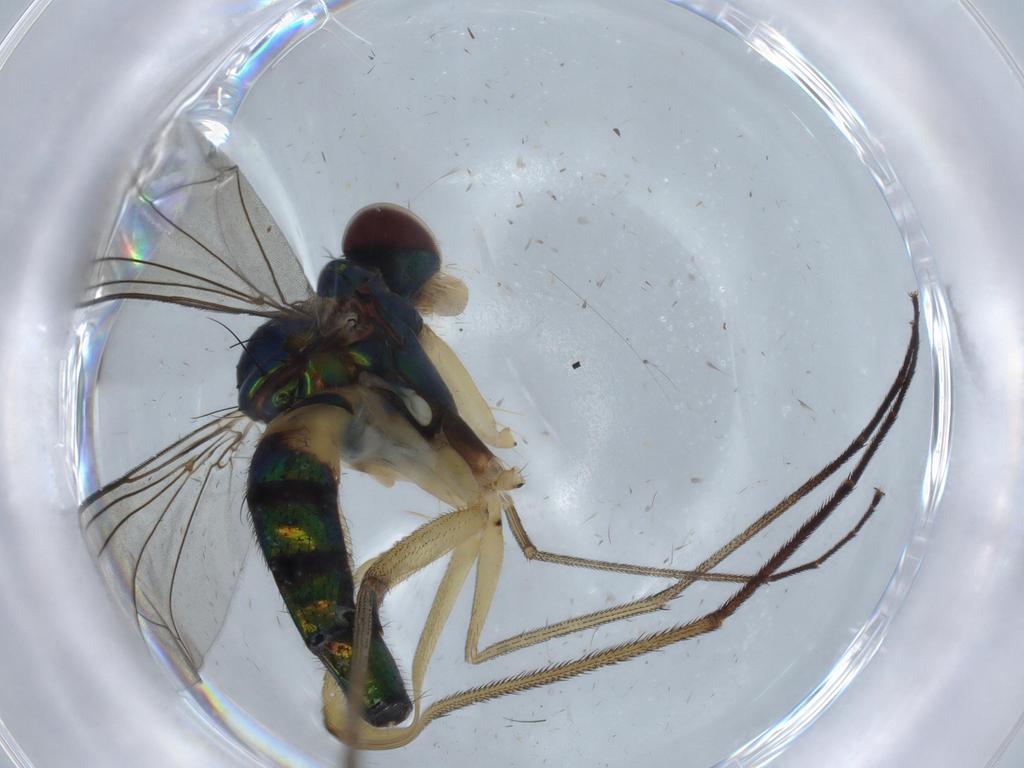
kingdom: Animalia
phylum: Arthropoda
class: Insecta
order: Diptera
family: Dolichopodidae
